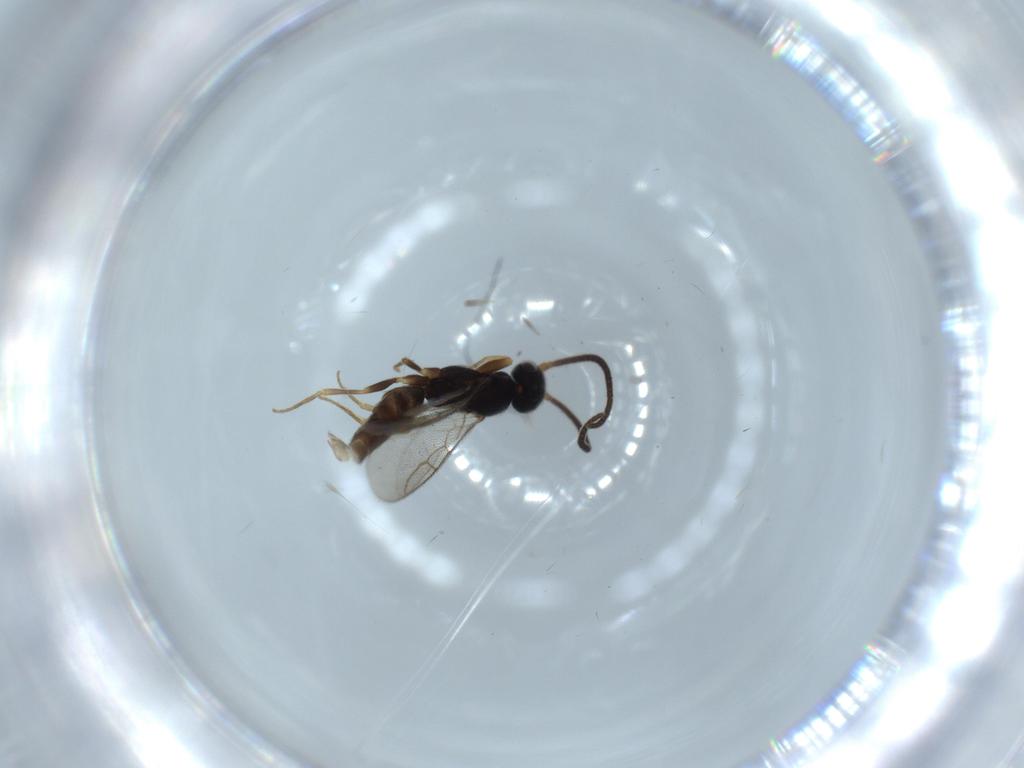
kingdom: Animalia
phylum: Arthropoda
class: Insecta
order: Hymenoptera
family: Sclerogibbidae
